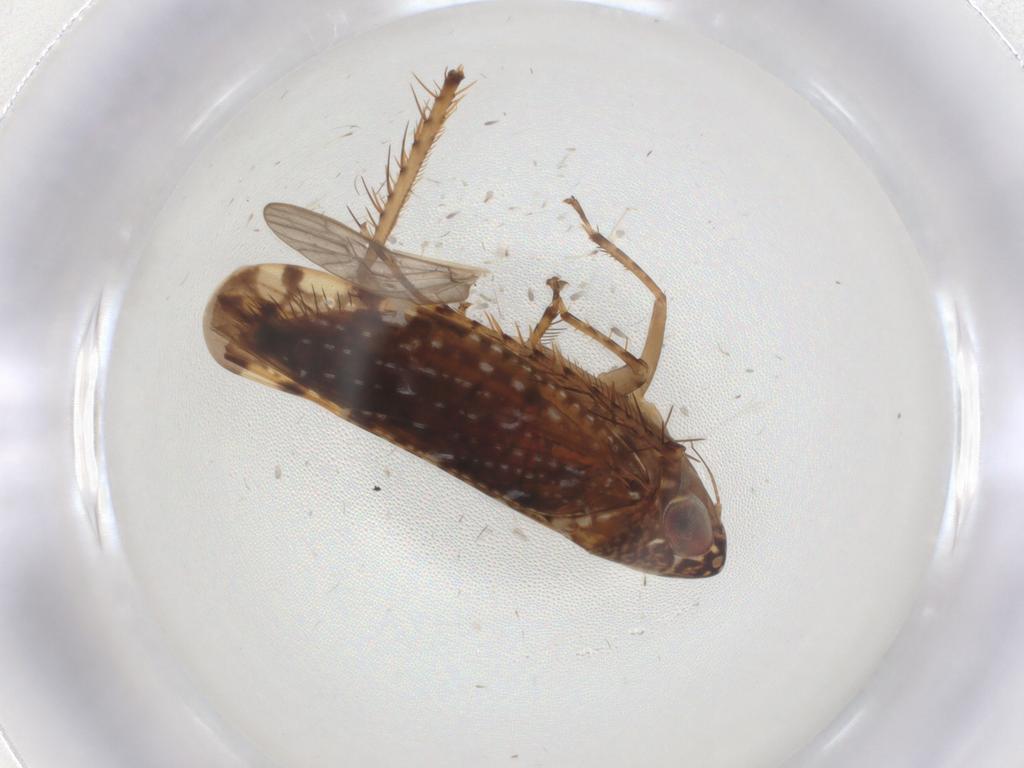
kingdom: Animalia
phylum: Arthropoda
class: Insecta
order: Hemiptera
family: Cicadellidae
